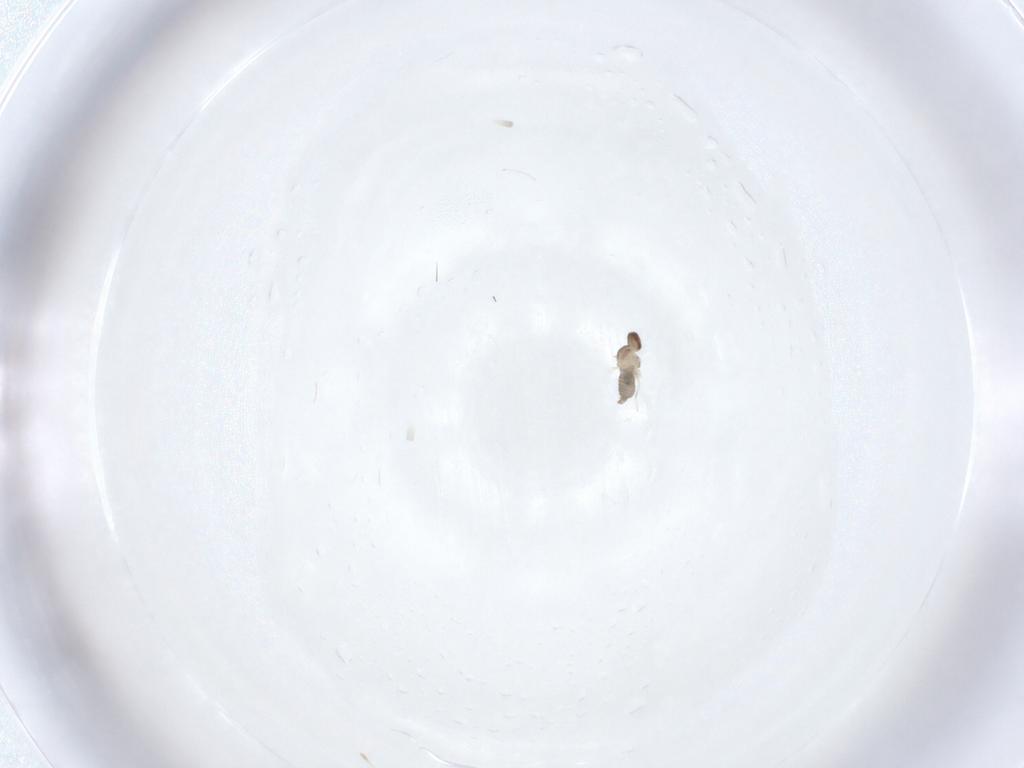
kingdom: Animalia
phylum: Arthropoda
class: Insecta
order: Diptera
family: Cecidomyiidae
